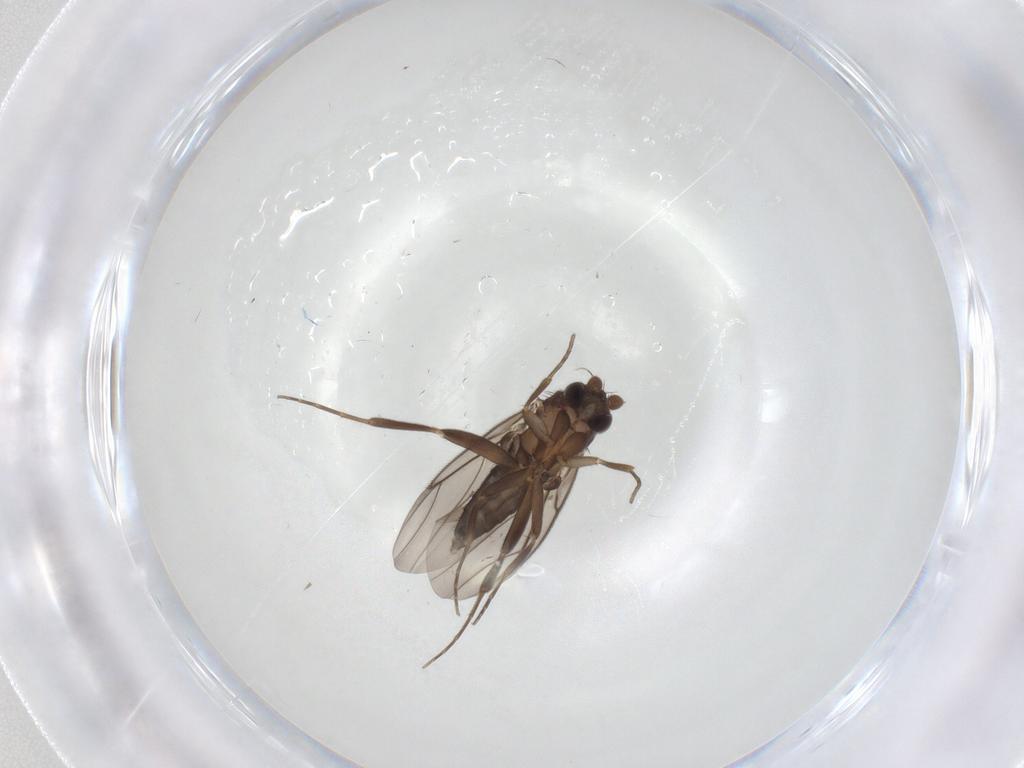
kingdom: Animalia
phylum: Arthropoda
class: Insecta
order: Diptera
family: Chironomidae
